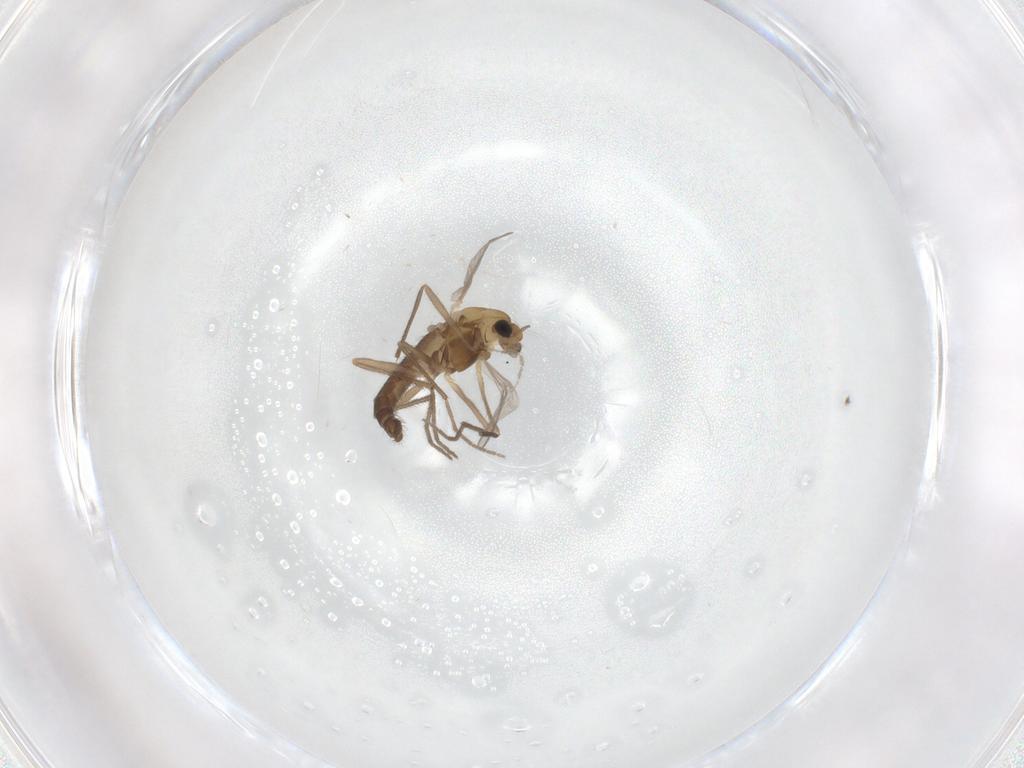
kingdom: Animalia
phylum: Arthropoda
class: Insecta
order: Diptera
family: Chironomidae
